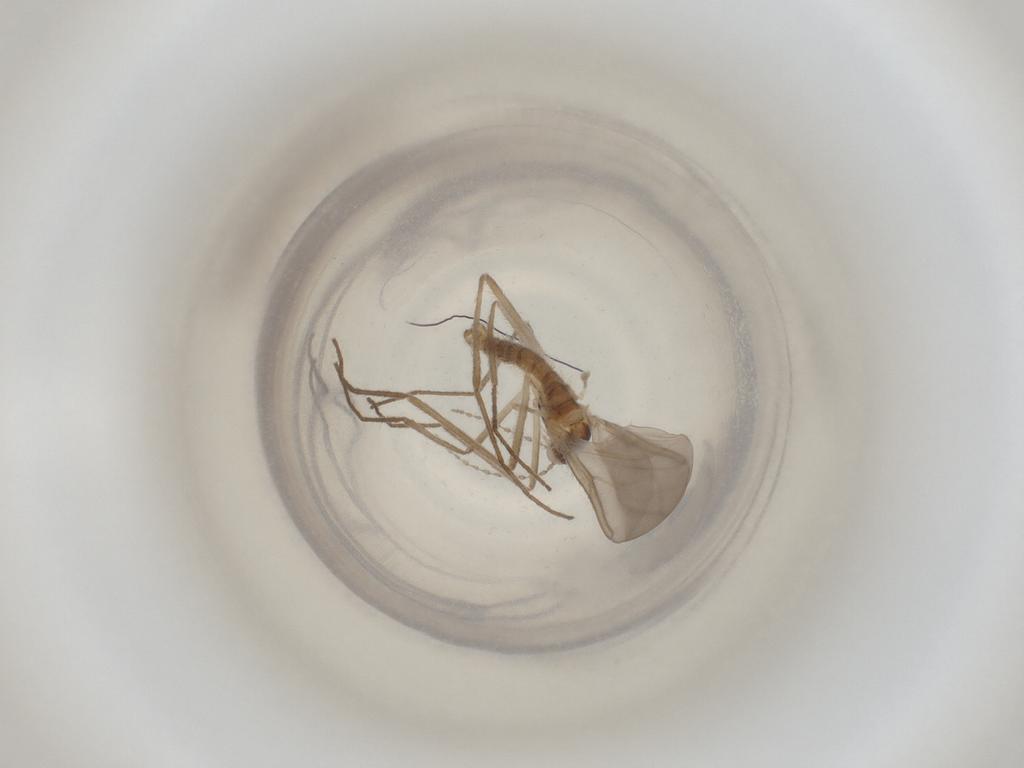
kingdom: Animalia
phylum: Arthropoda
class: Insecta
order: Diptera
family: Cecidomyiidae
